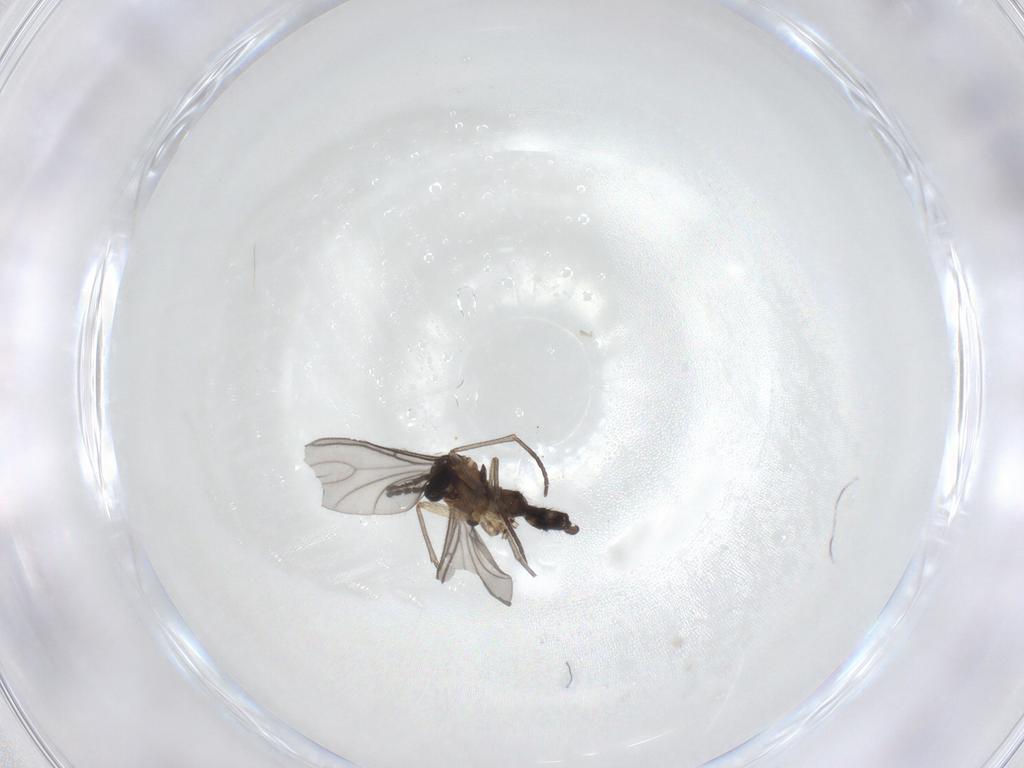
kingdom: Animalia
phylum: Arthropoda
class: Insecta
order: Diptera
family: Sciaridae
